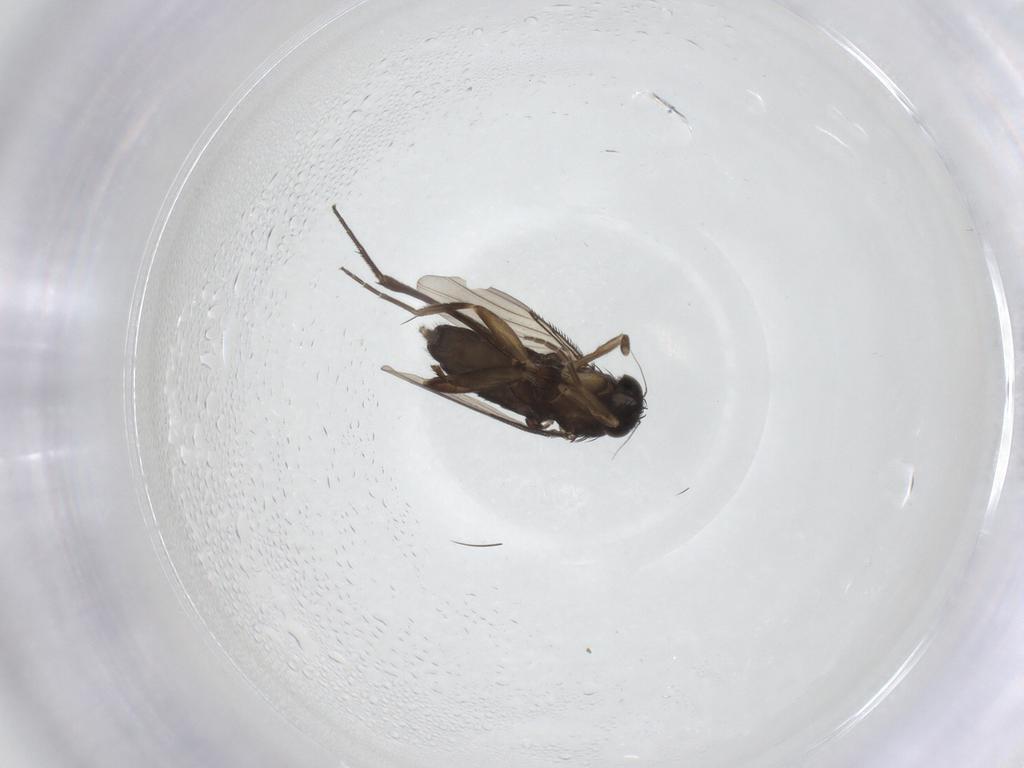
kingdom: Animalia
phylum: Arthropoda
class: Insecta
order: Diptera
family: Phoridae
